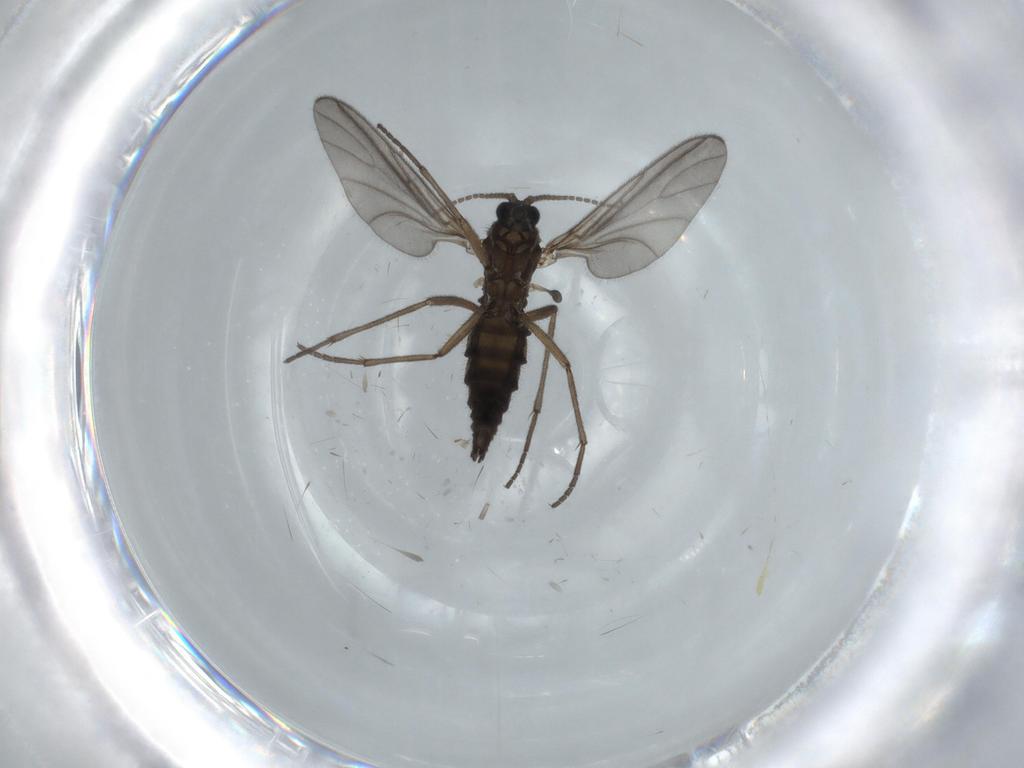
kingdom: Animalia
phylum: Arthropoda
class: Insecta
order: Diptera
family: Sciaridae
